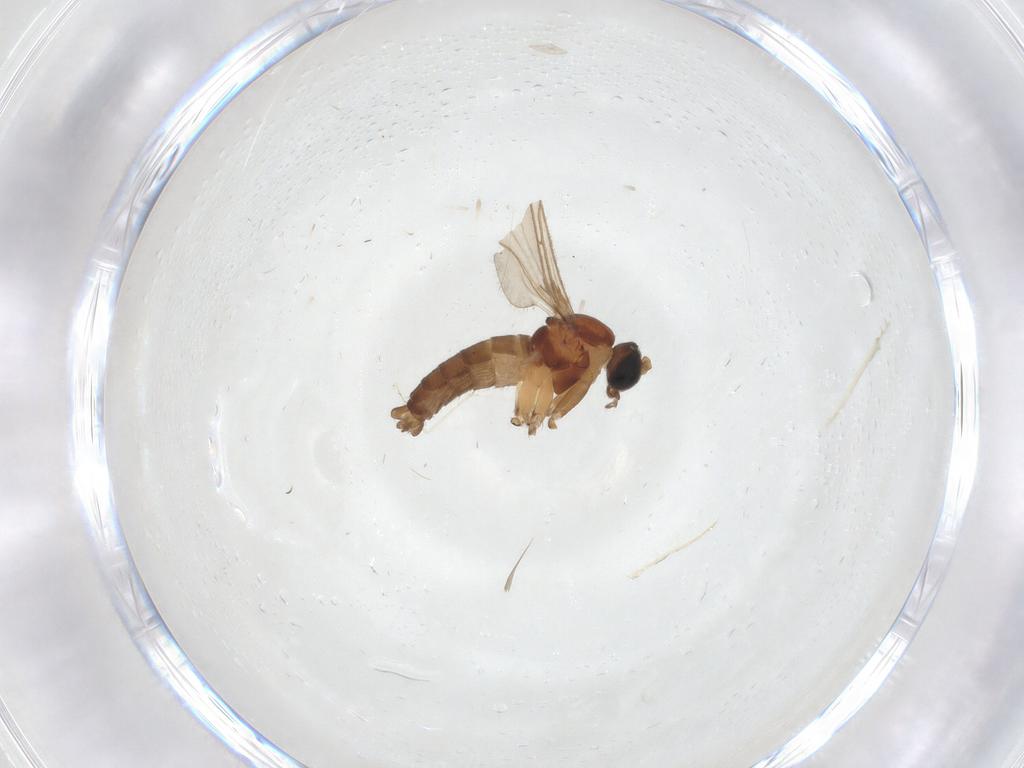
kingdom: Animalia
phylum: Arthropoda
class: Insecta
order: Diptera
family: Cecidomyiidae
